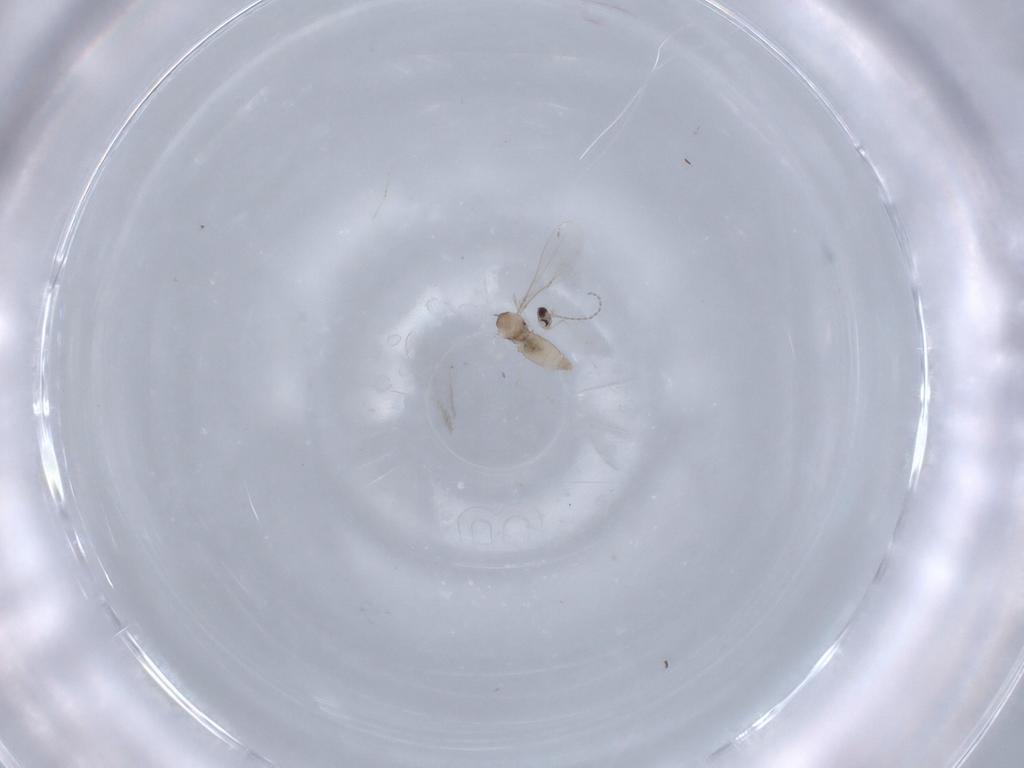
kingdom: Animalia
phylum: Arthropoda
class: Insecta
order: Diptera
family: Cecidomyiidae
